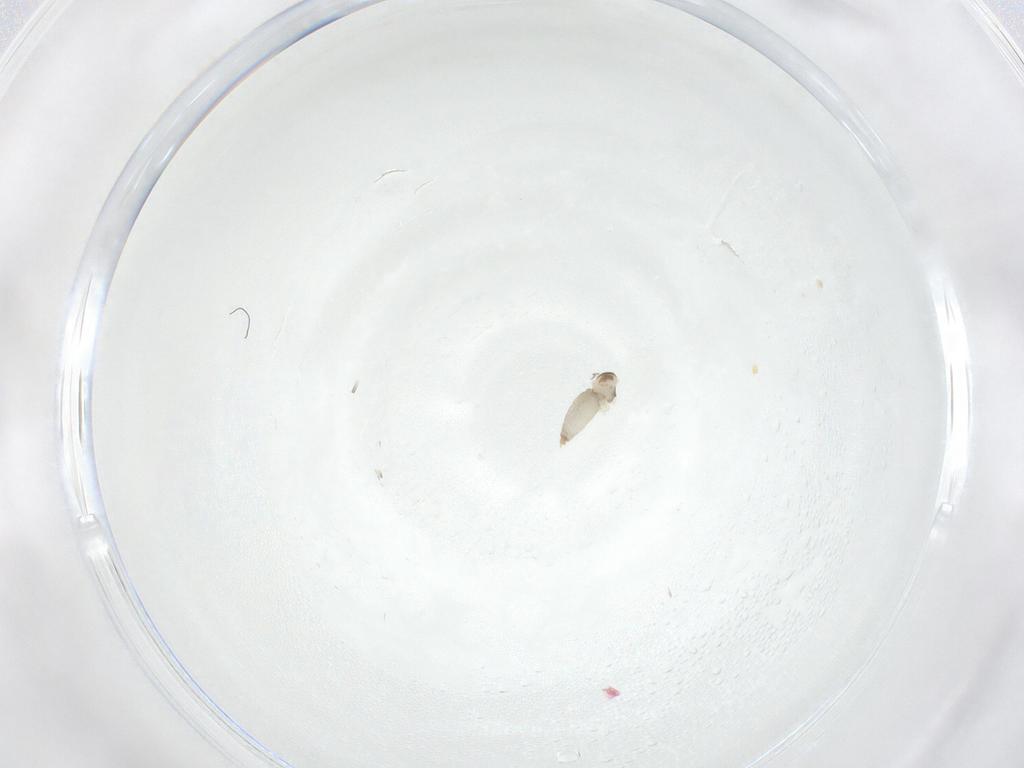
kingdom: Animalia
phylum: Arthropoda
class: Insecta
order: Diptera
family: Cecidomyiidae
